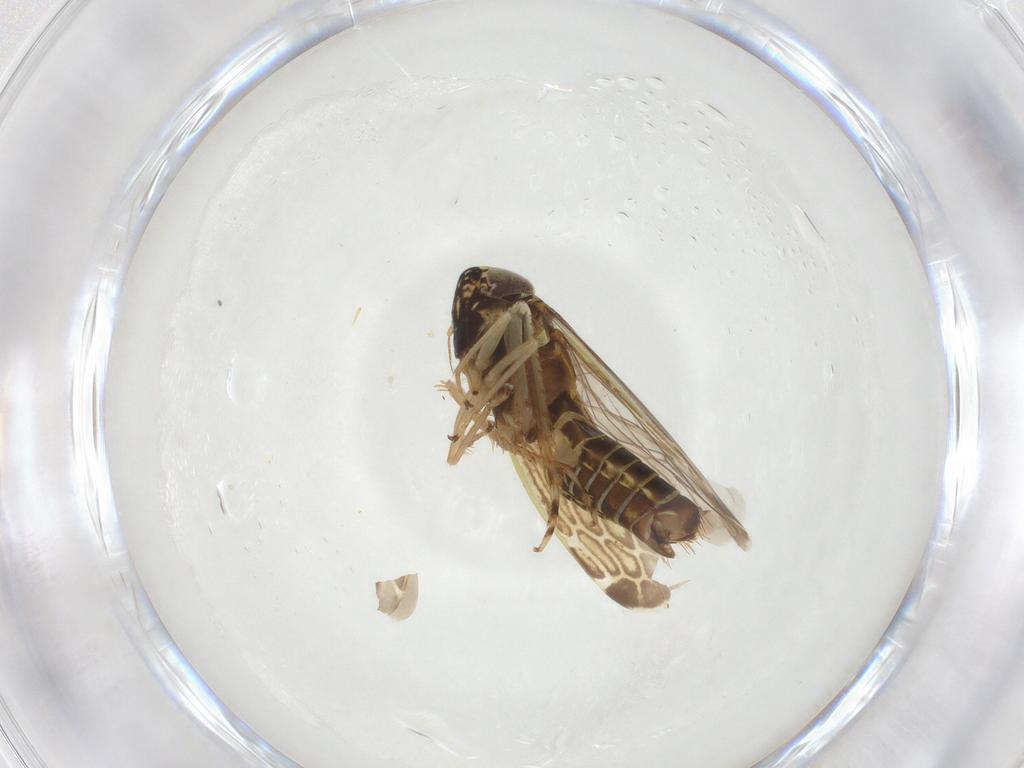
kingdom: Animalia
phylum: Arthropoda
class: Insecta
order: Hemiptera
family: Cicadellidae
